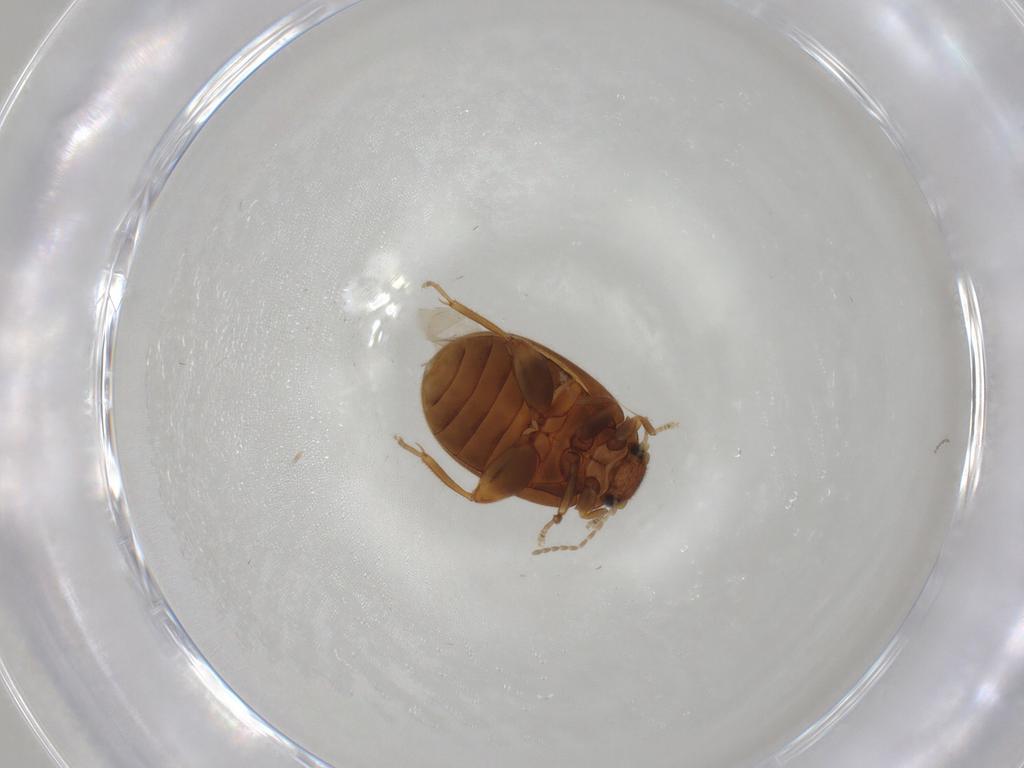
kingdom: Animalia
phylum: Arthropoda
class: Insecta
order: Coleoptera
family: Scirtidae
